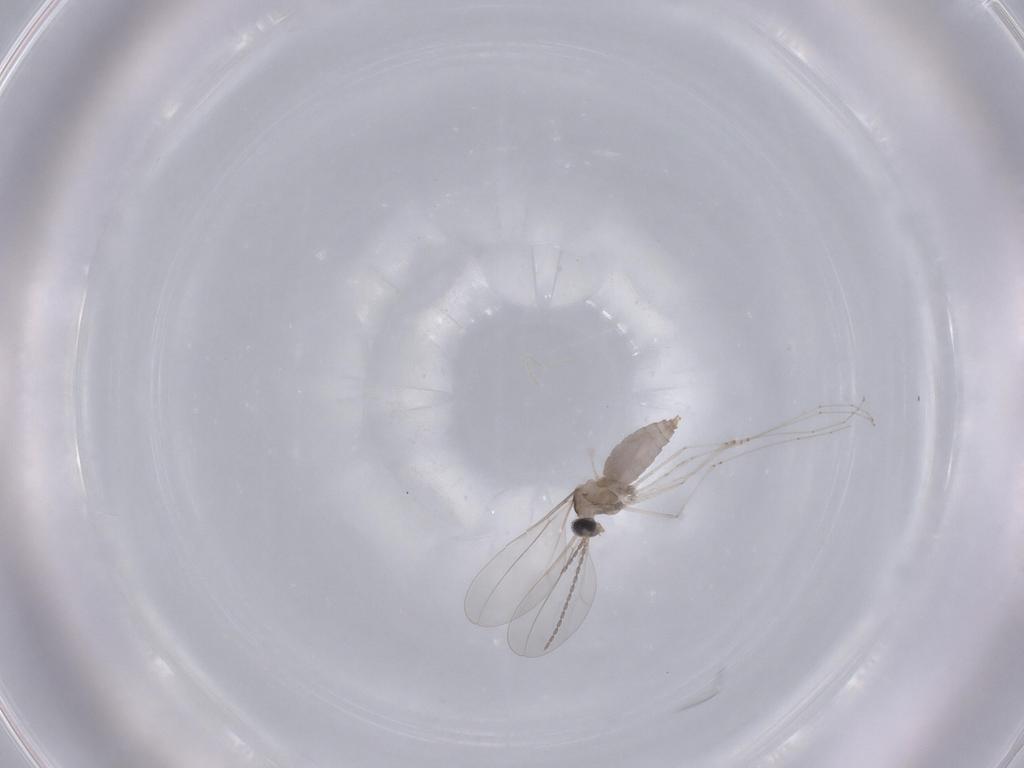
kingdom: Animalia
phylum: Arthropoda
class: Insecta
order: Diptera
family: Cecidomyiidae
